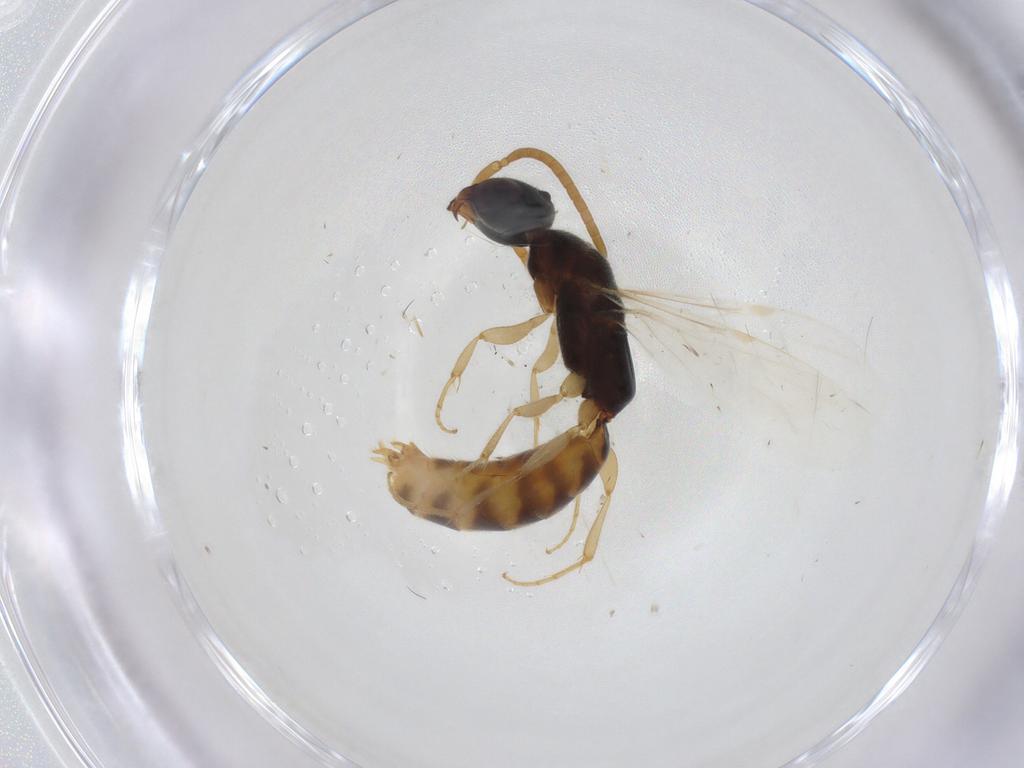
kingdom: Animalia
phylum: Arthropoda
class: Insecta
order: Hymenoptera
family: Bethylidae
